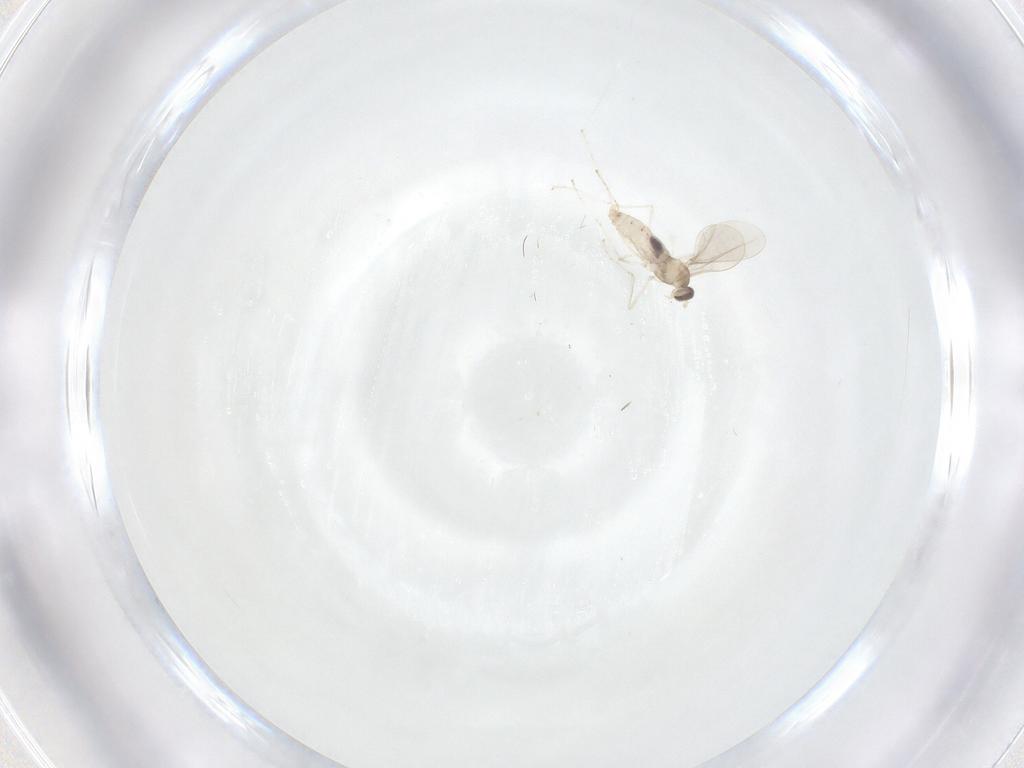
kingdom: Animalia
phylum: Arthropoda
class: Insecta
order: Diptera
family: Cecidomyiidae
